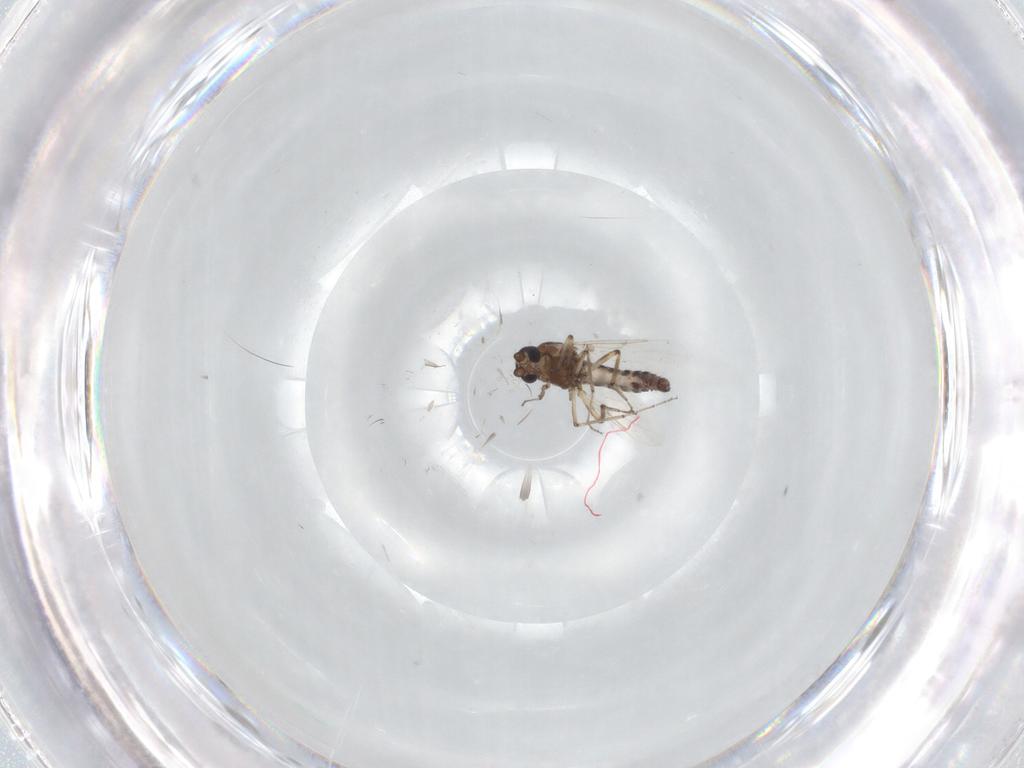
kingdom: Animalia
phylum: Arthropoda
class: Insecta
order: Diptera
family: Ceratopogonidae
